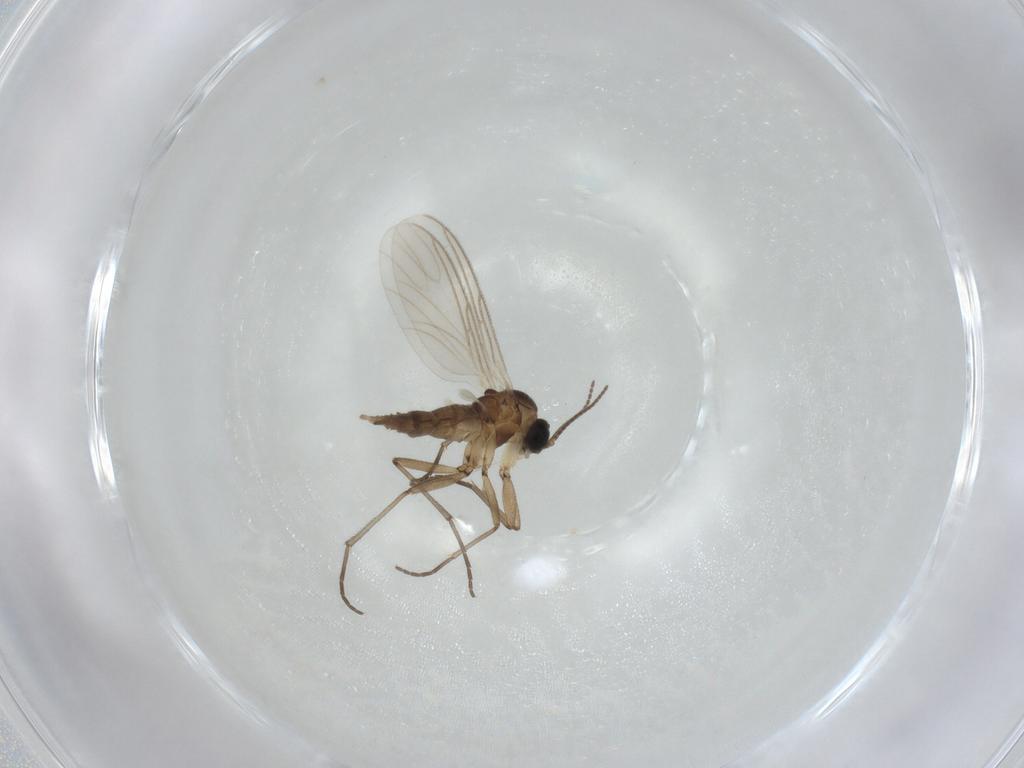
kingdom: Animalia
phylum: Arthropoda
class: Insecta
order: Diptera
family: Muscidae
